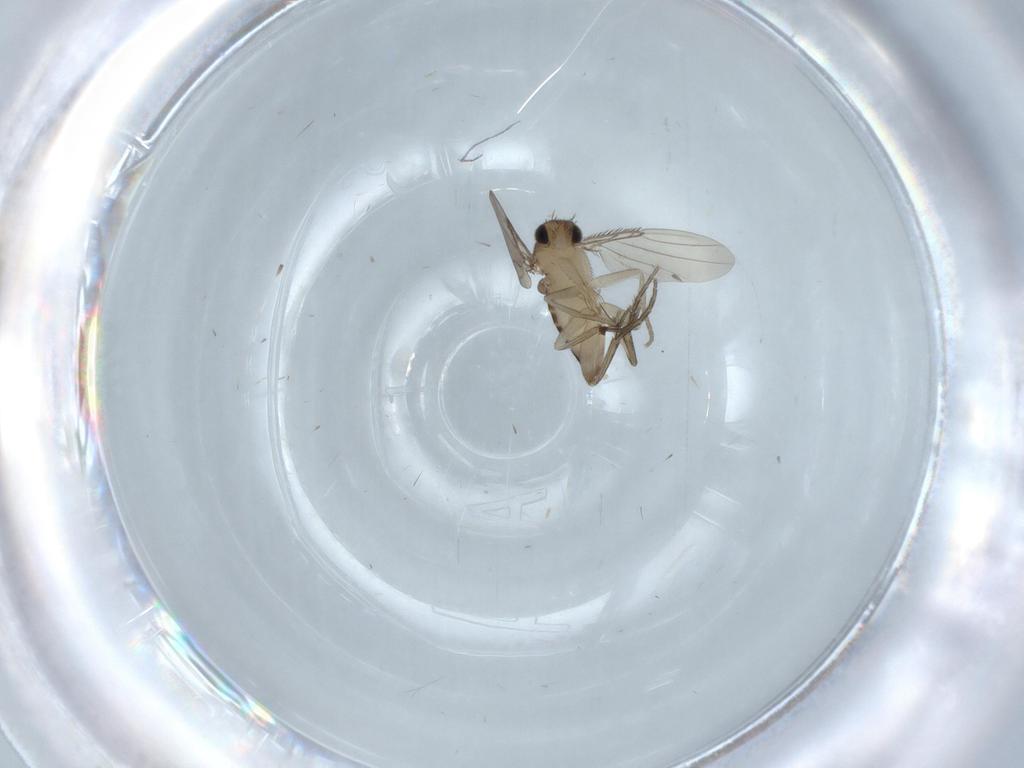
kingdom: Animalia
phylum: Arthropoda
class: Insecta
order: Diptera
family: Phoridae
